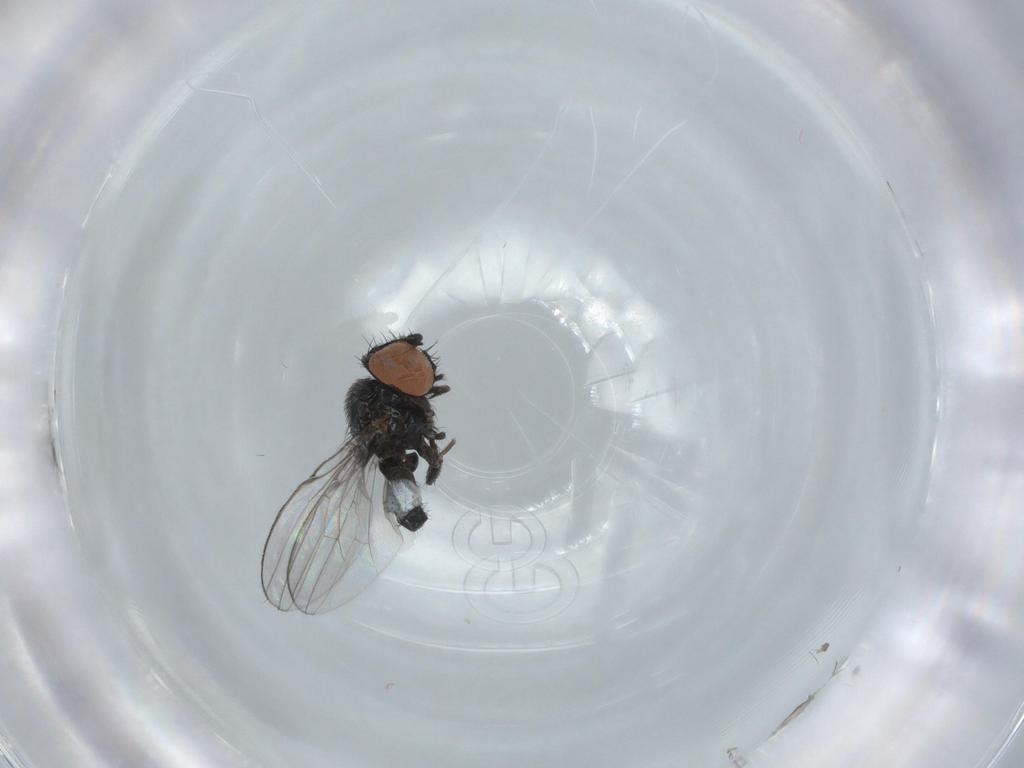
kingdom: Animalia
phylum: Arthropoda
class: Insecta
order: Diptera
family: Milichiidae
